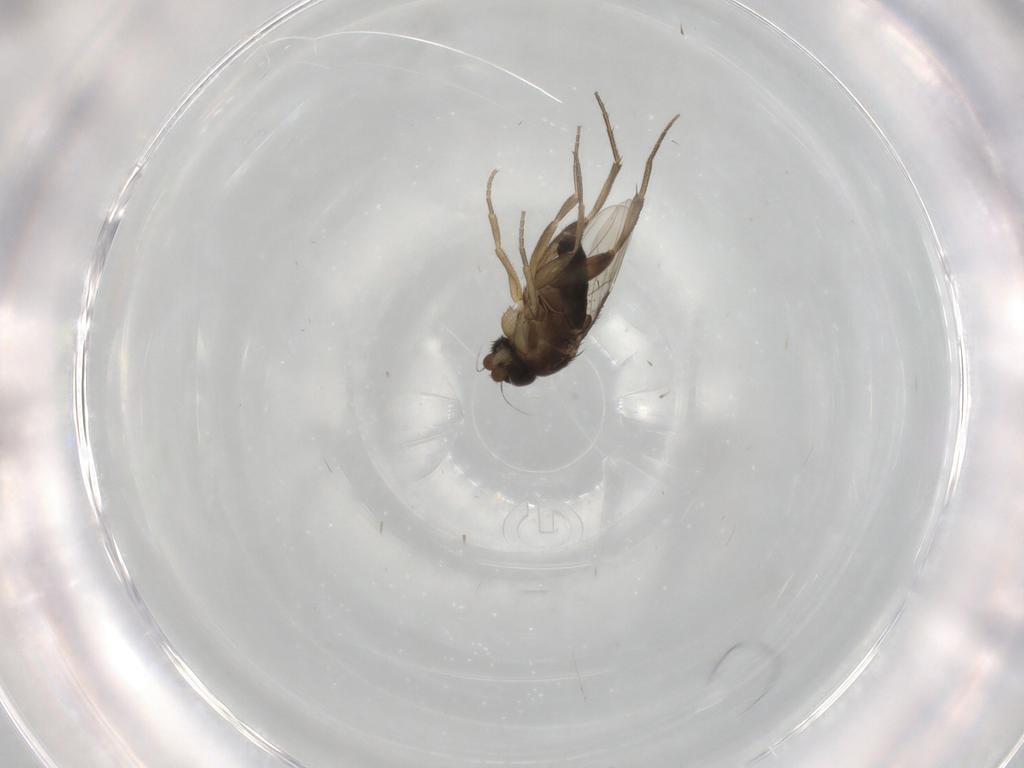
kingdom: Animalia
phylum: Arthropoda
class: Insecta
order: Diptera
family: Phoridae
